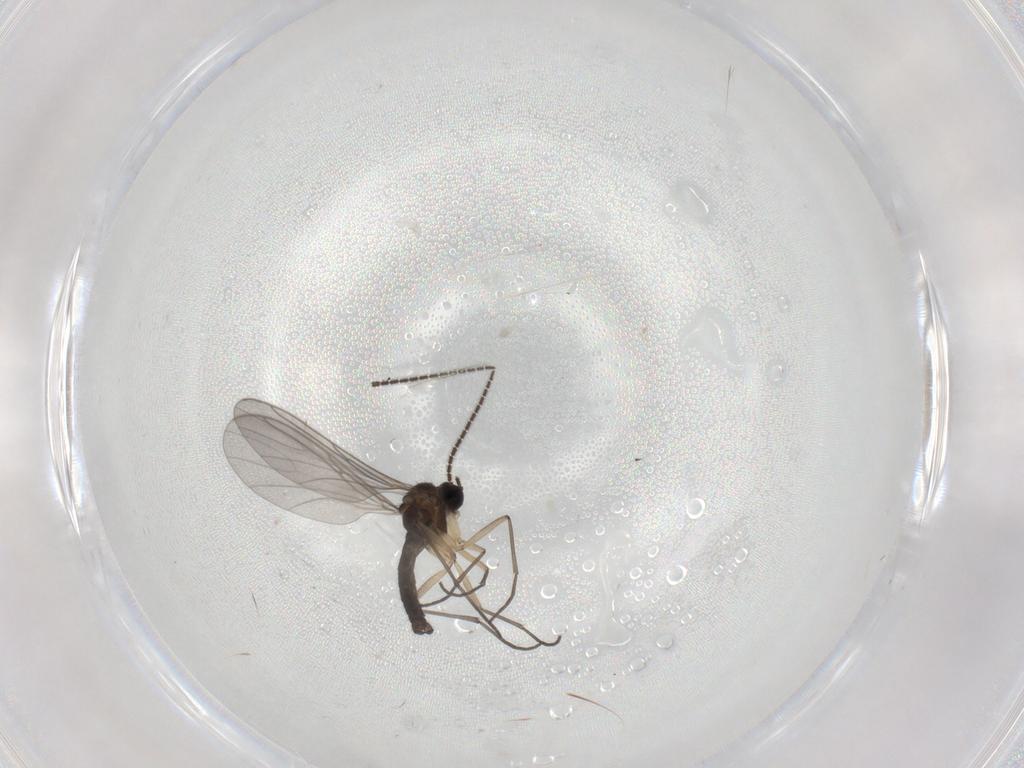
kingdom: Animalia
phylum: Arthropoda
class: Insecta
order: Diptera
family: Sciaridae
